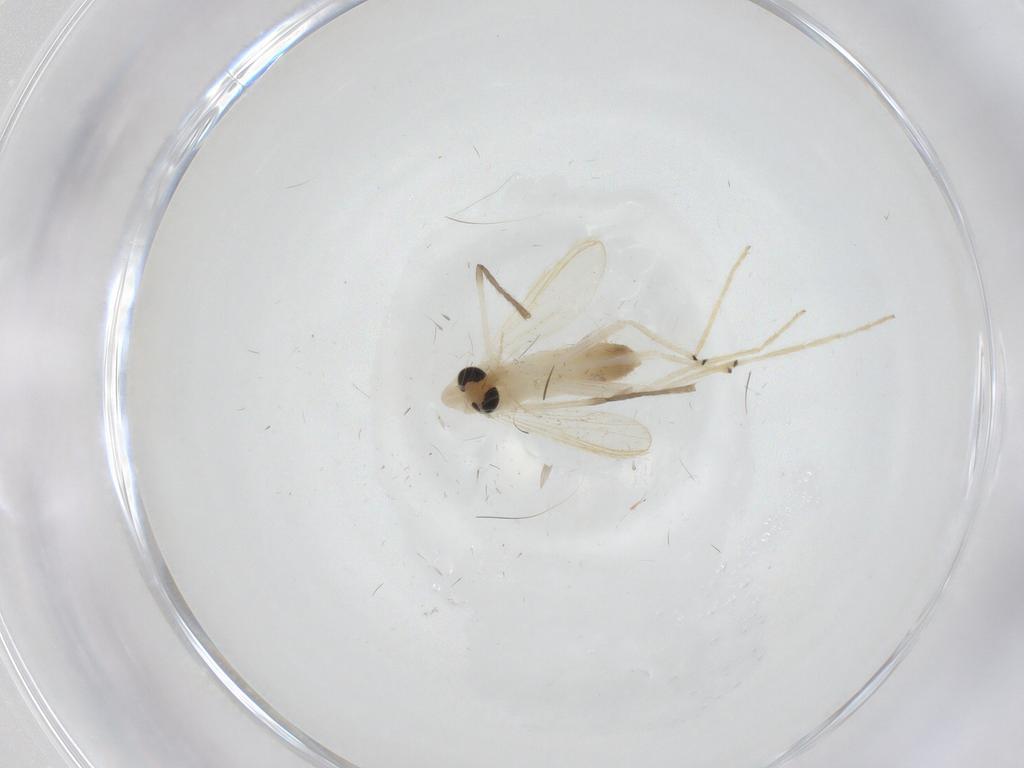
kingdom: Animalia
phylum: Arthropoda
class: Insecta
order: Diptera
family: Chironomidae
